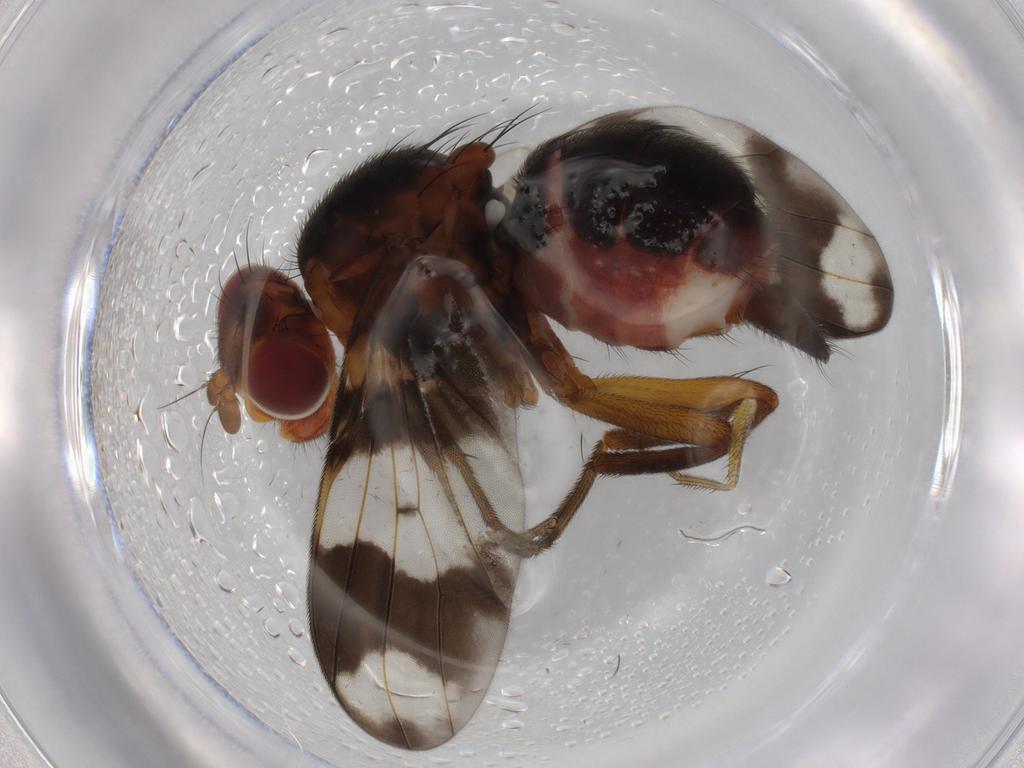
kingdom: Animalia
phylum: Arthropoda
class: Insecta
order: Diptera
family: Richardiidae
